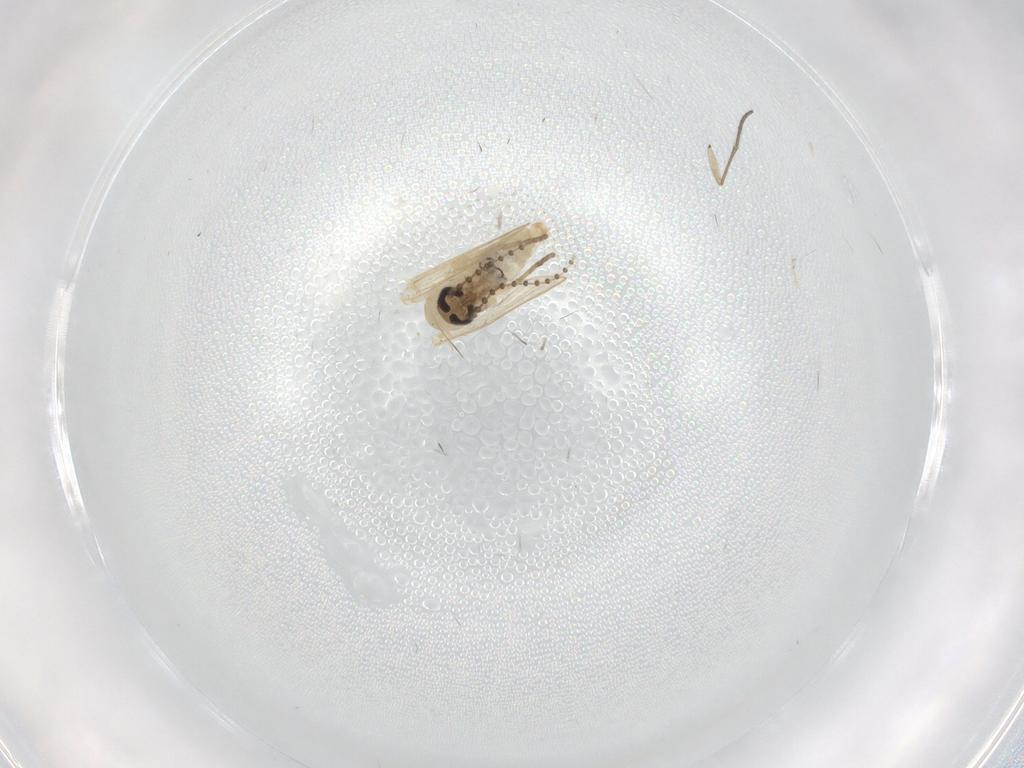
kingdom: Animalia
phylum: Arthropoda
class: Insecta
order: Diptera
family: Psychodidae
